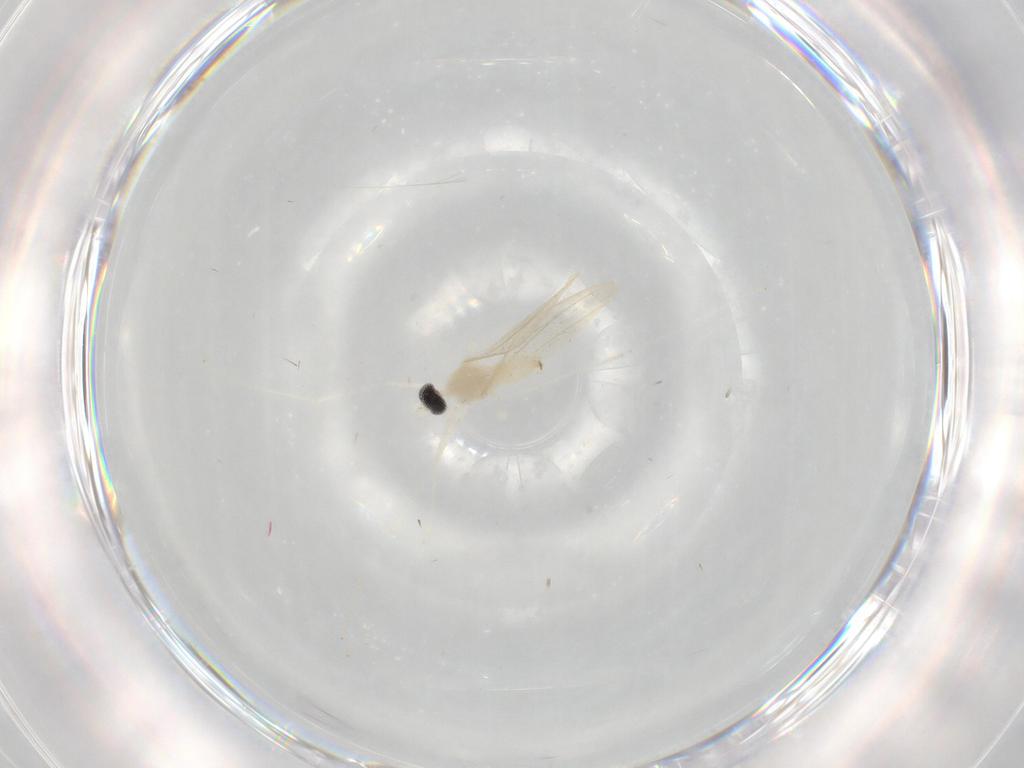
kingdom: Animalia
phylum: Arthropoda
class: Insecta
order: Diptera
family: Cecidomyiidae
